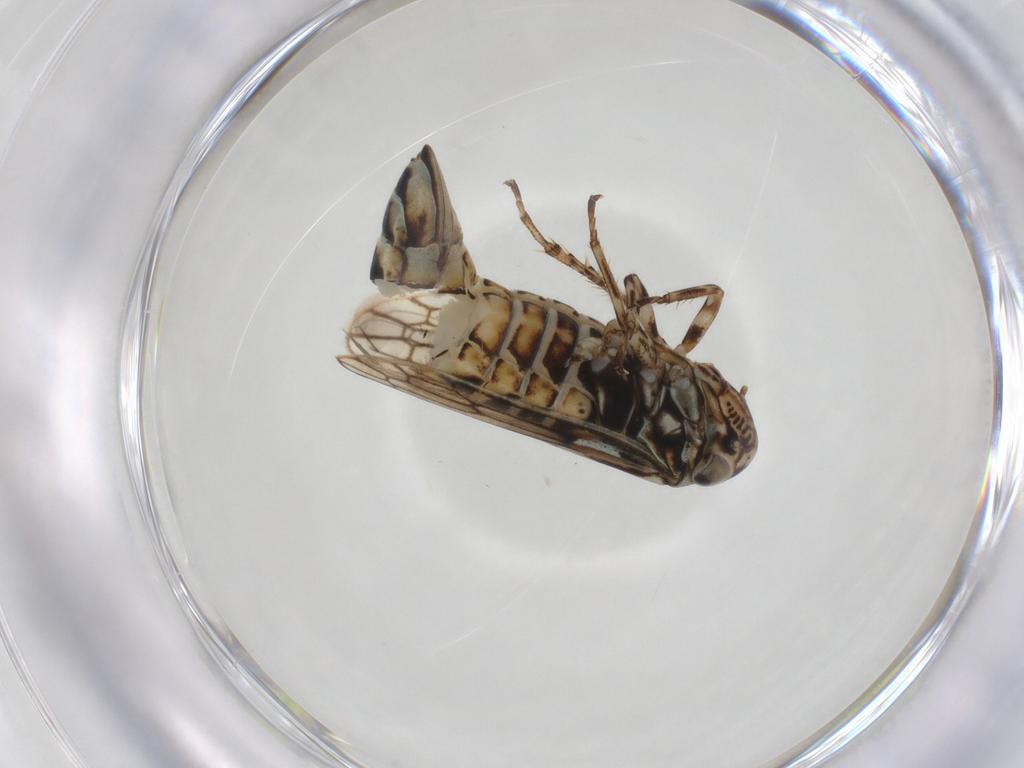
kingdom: Animalia
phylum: Arthropoda
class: Insecta
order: Hemiptera
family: Cicadellidae
